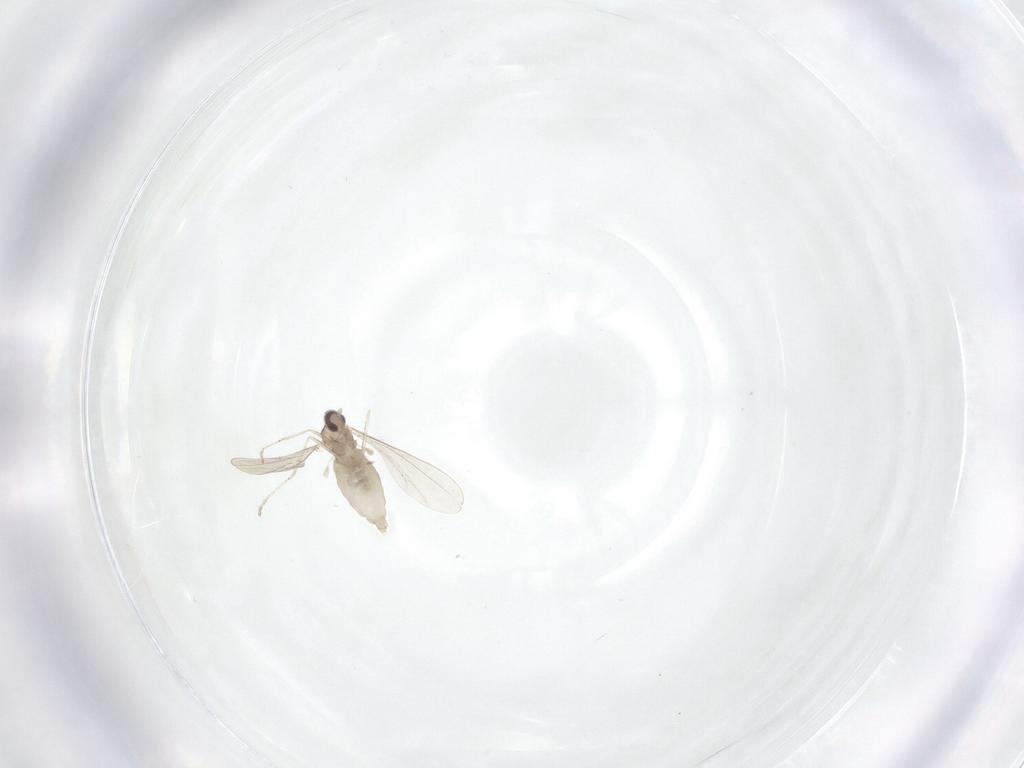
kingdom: Animalia
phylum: Arthropoda
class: Insecta
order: Diptera
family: Cecidomyiidae
